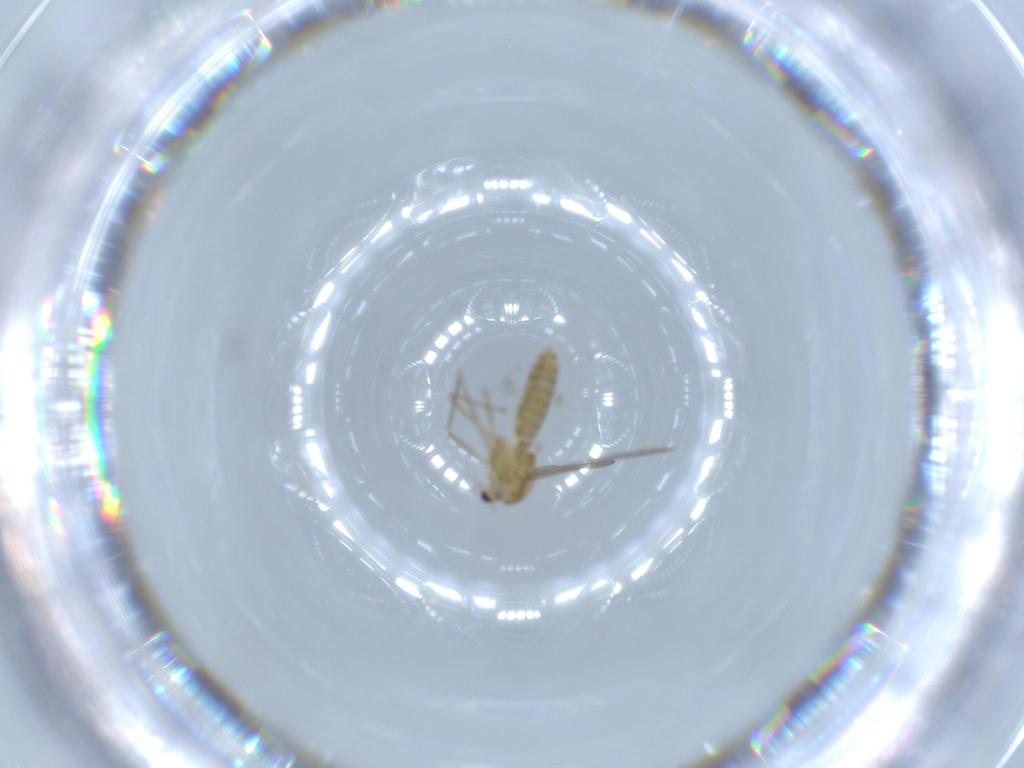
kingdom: Animalia
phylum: Arthropoda
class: Insecta
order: Diptera
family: Chironomidae
